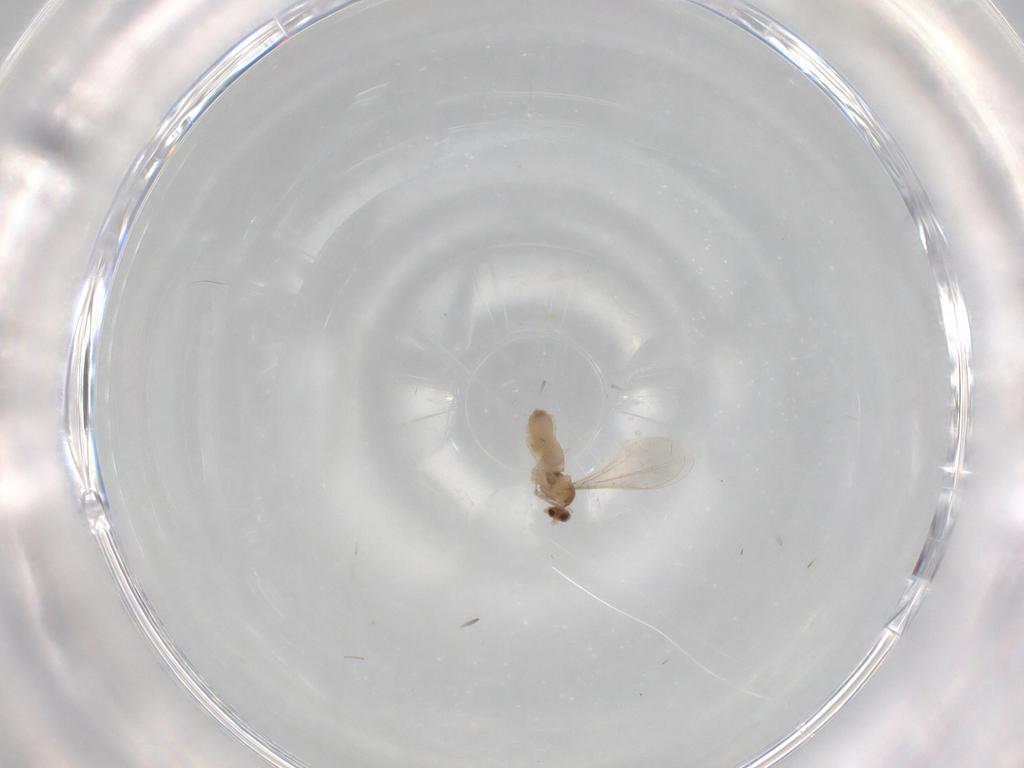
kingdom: Animalia
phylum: Arthropoda
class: Insecta
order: Diptera
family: Cecidomyiidae
